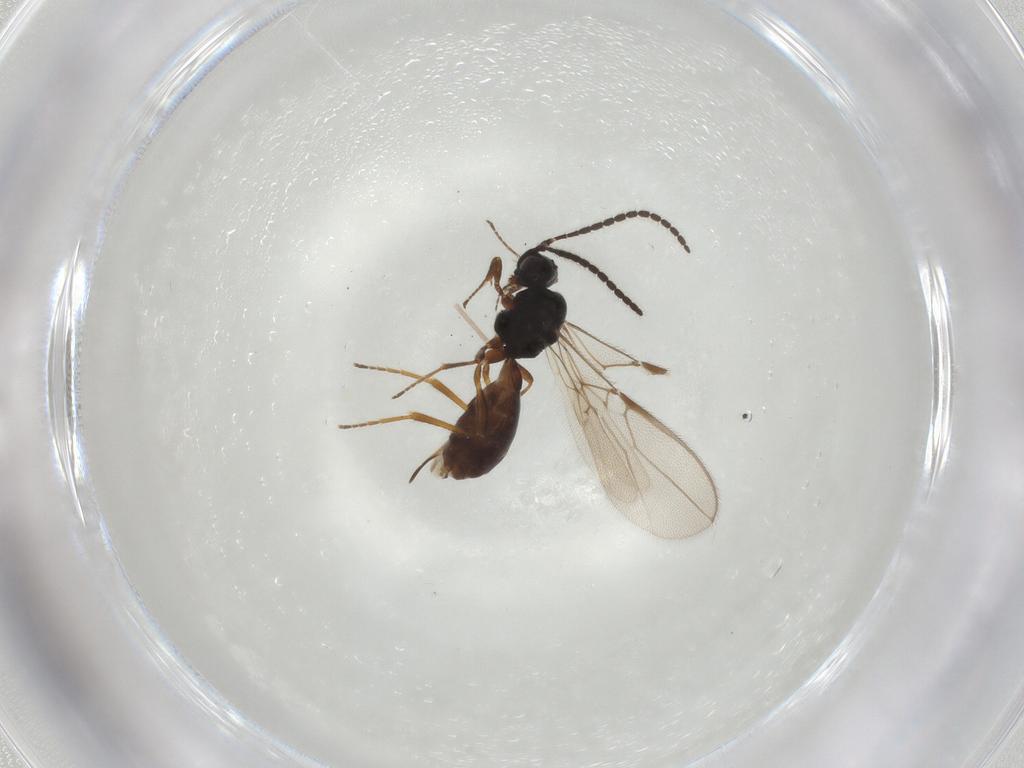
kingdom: Animalia
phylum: Arthropoda
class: Insecta
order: Hymenoptera
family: Braconidae
